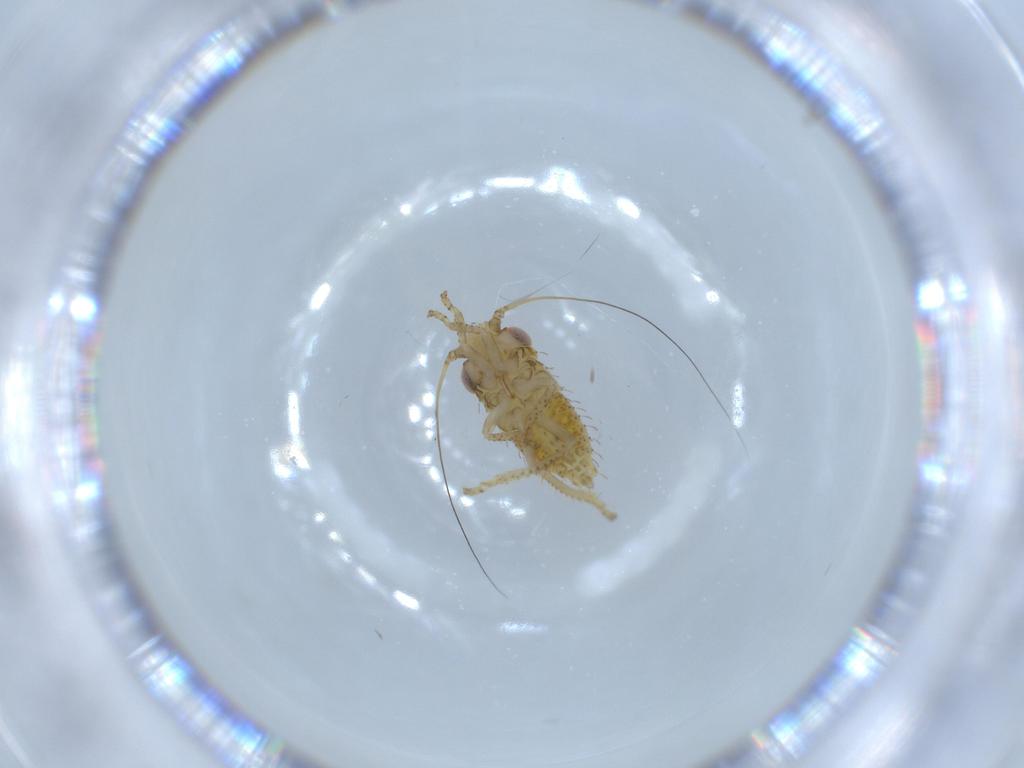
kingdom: Animalia
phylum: Arthropoda
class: Insecta
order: Hemiptera
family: Cicadellidae
